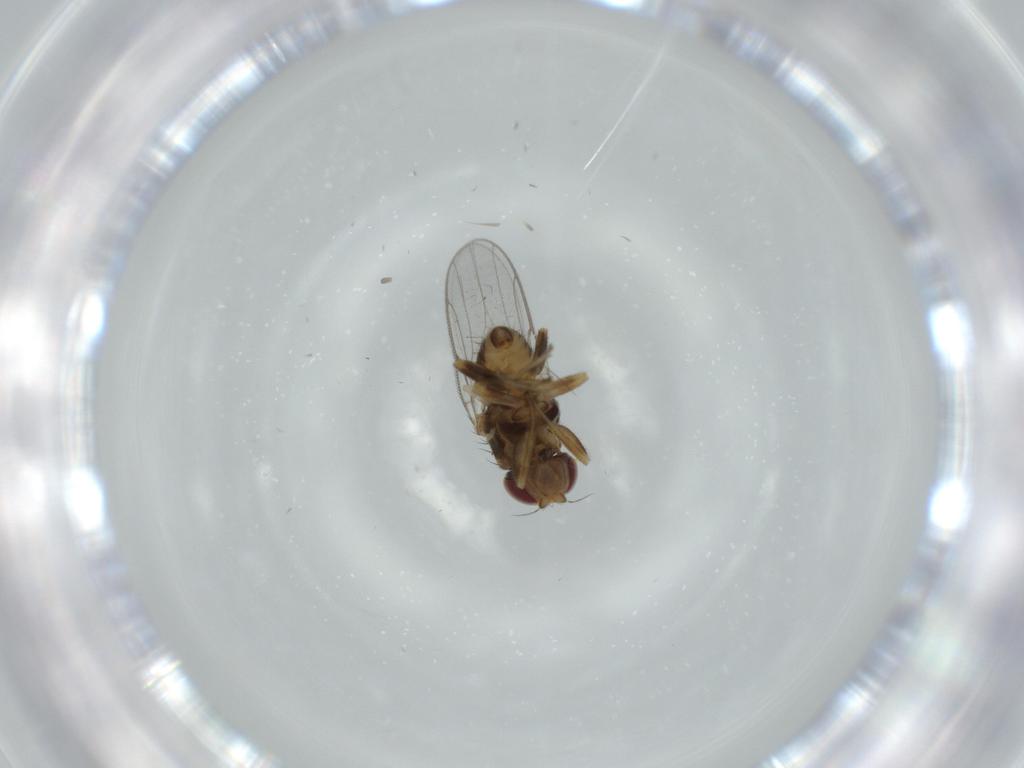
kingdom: Animalia
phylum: Arthropoda
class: Insecta
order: Diptera
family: Chloropidae
